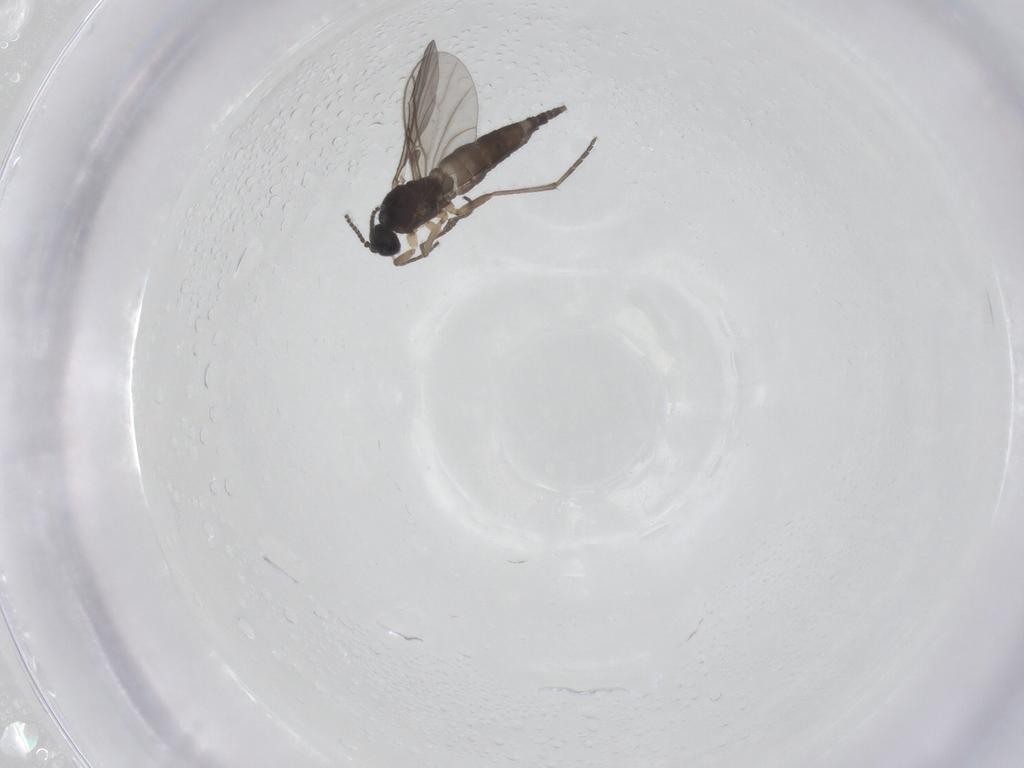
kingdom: Animalia
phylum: Arthropoda
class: Insecta
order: Diptera
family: Sciaridae
